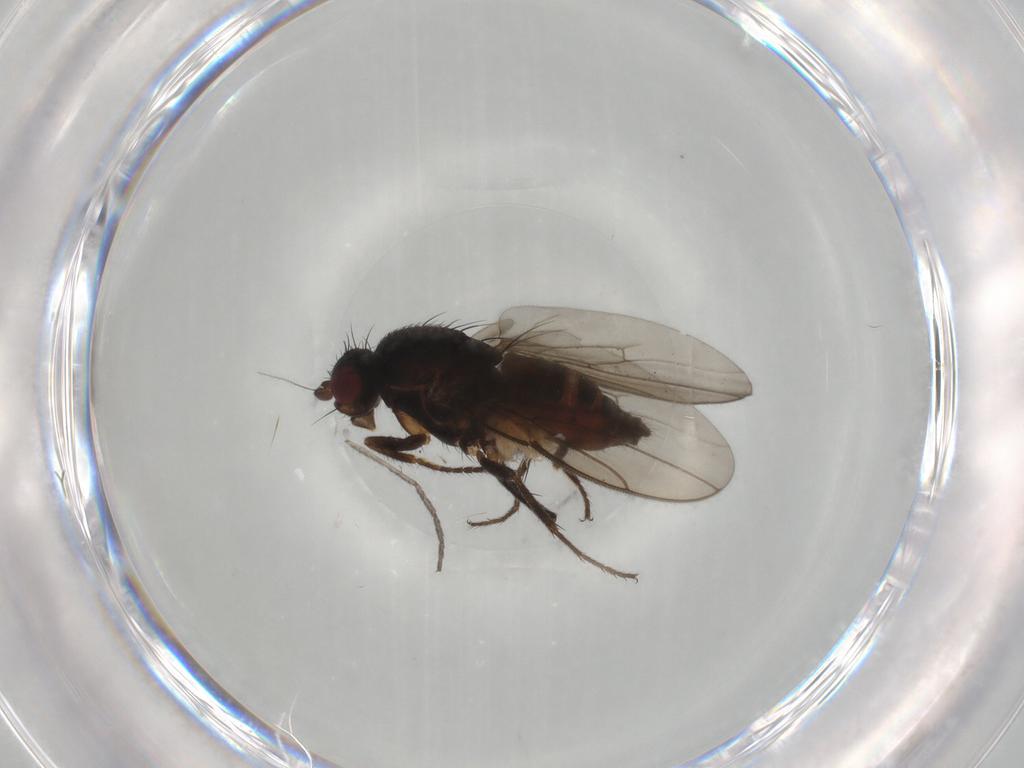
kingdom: Animalia
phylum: Arthropoda
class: Insecta
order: Diptera
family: Sphaeroceridae
